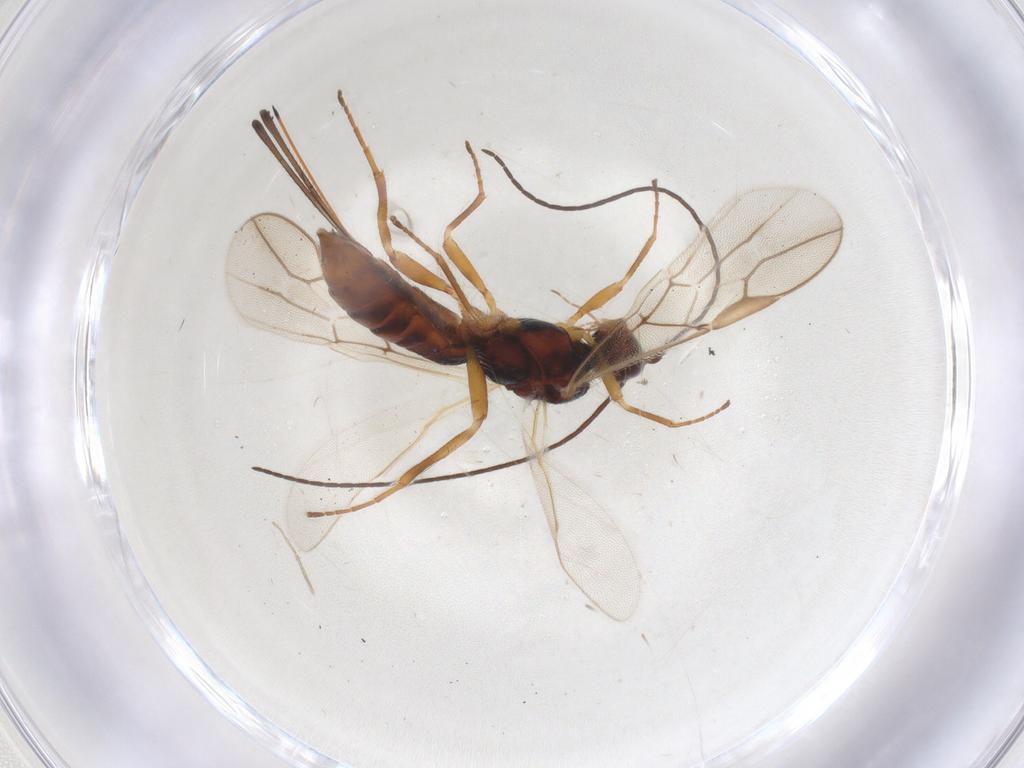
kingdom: Animalia
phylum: Arthropoda
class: Insecta
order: Hymenoptera
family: Braconidae
